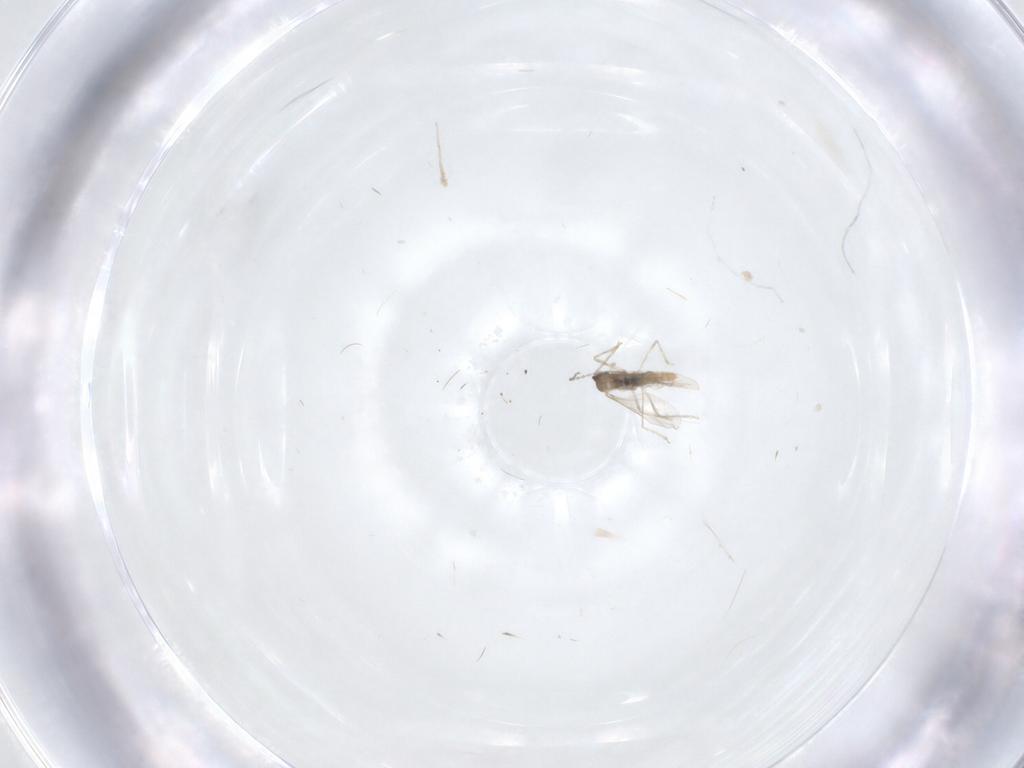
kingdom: Animalia
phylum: Arthropoda
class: Insecta
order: Diptera
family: Cecidomyiidae
